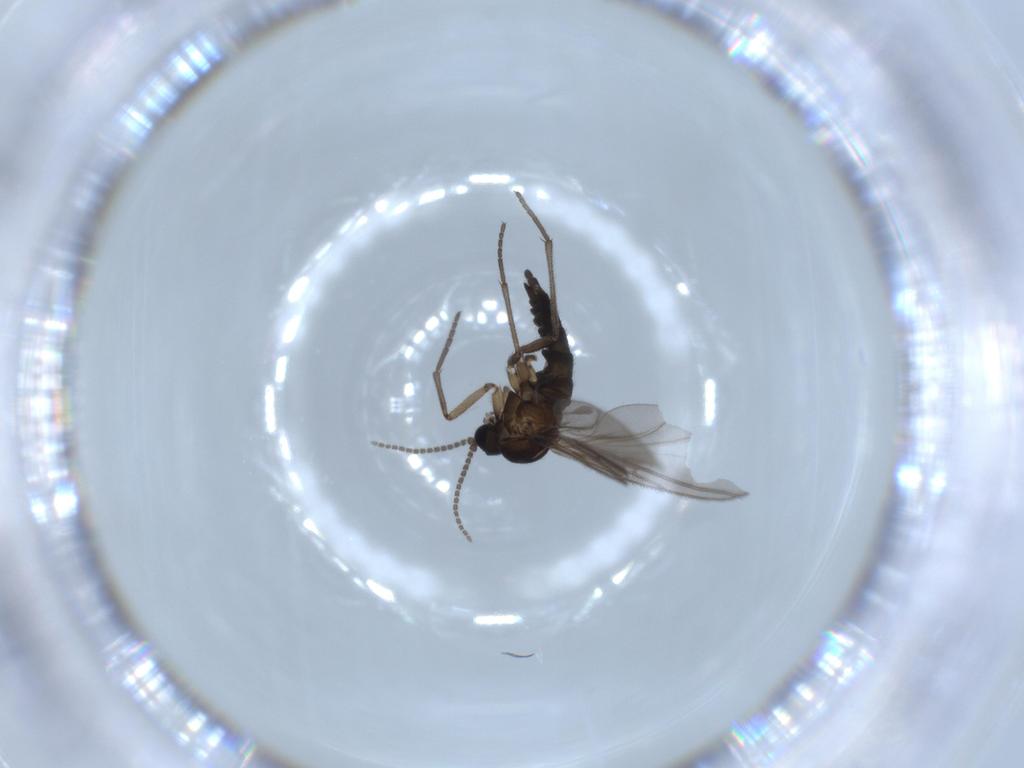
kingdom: Animalia
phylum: Arthropoda
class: Insecta
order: Diptera
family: Sciaridae
